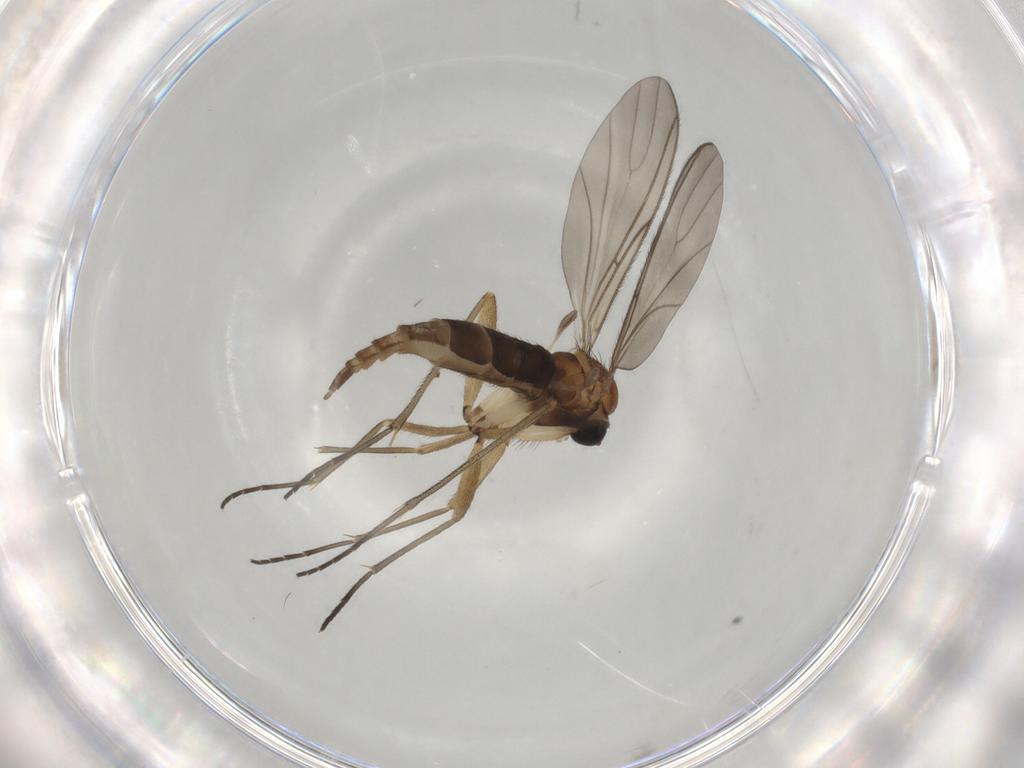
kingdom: Animalia
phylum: Arthropoda
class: Insecta
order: Diptera
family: Sciaridae
